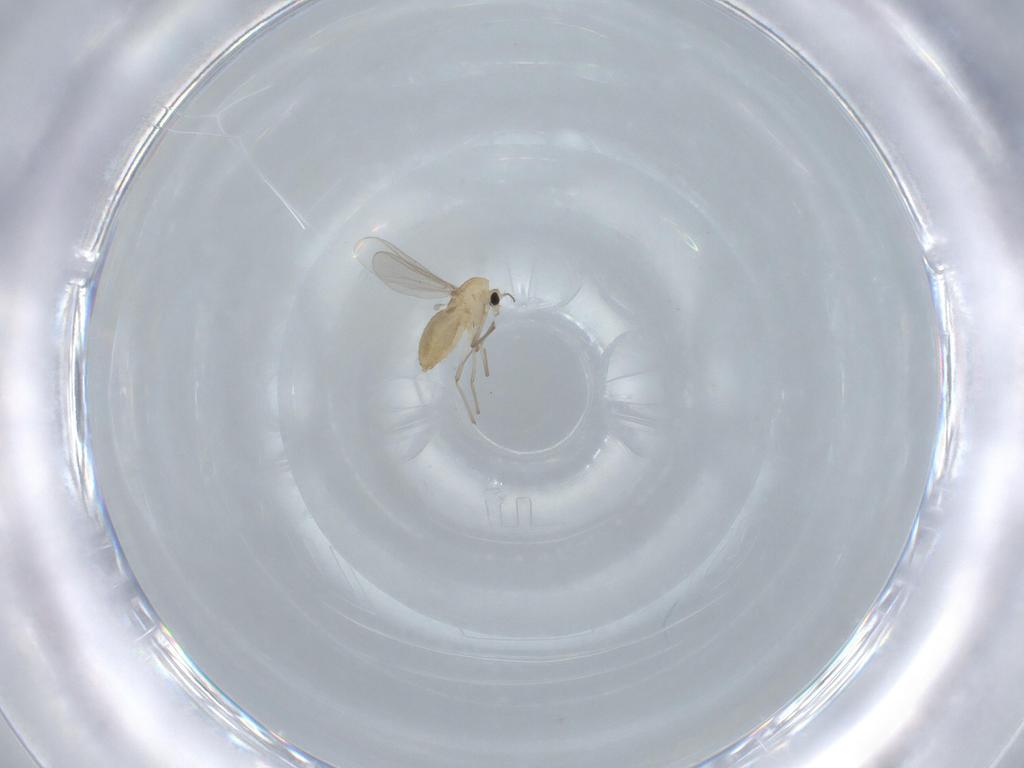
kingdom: Animalia
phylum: Arthropoda
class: Insecta
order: Diptera
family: Chironomidae
